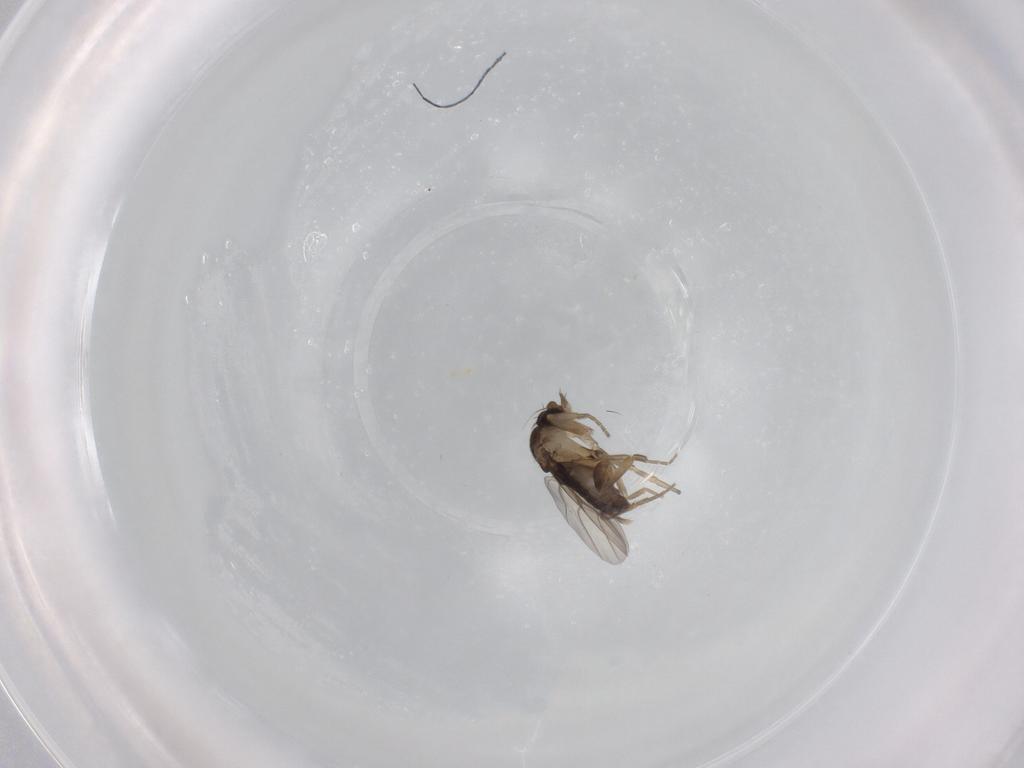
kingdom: Animalia
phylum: Arthropoda
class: Insecta
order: Diptera
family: Phoridae
